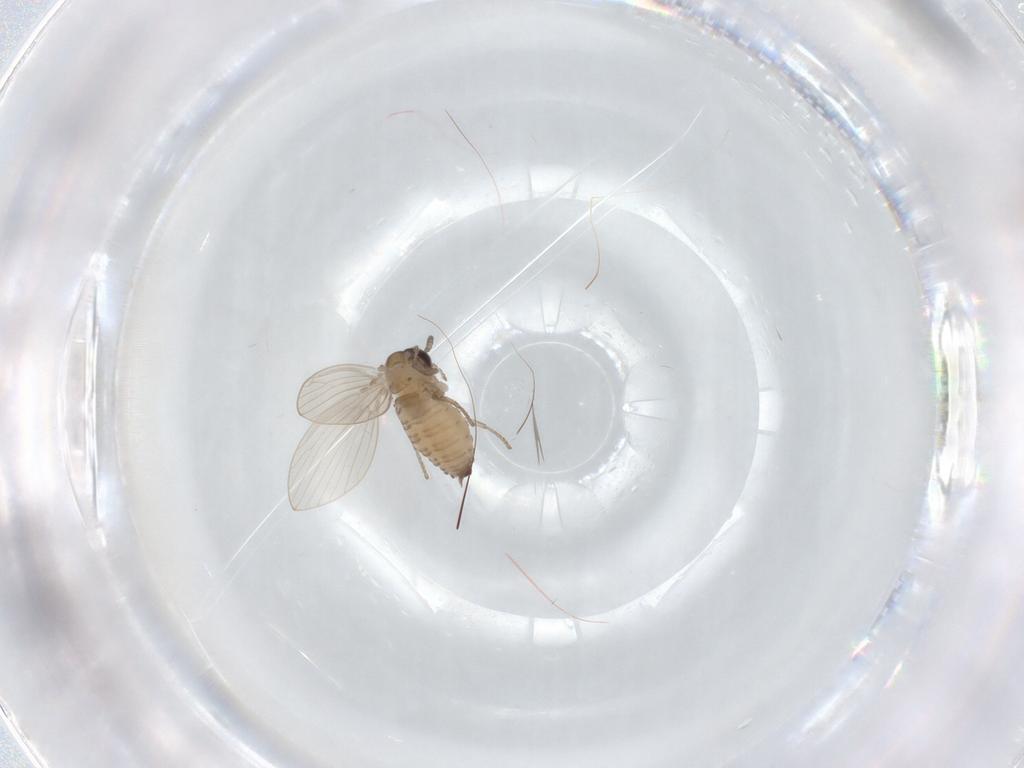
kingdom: Animalia
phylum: Arthropoda
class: Insecta
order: Diptera
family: Psychodidae
